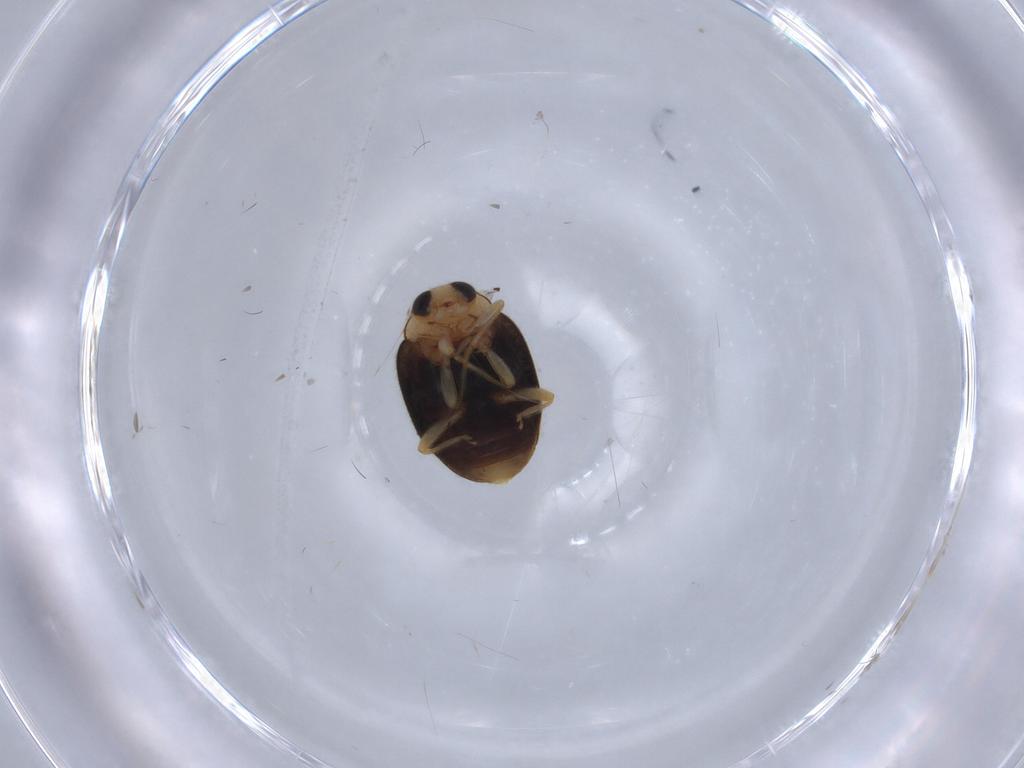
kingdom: Animalia
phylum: Arthropoda
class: Insecta
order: Coleoptera
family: Coccinellidae
